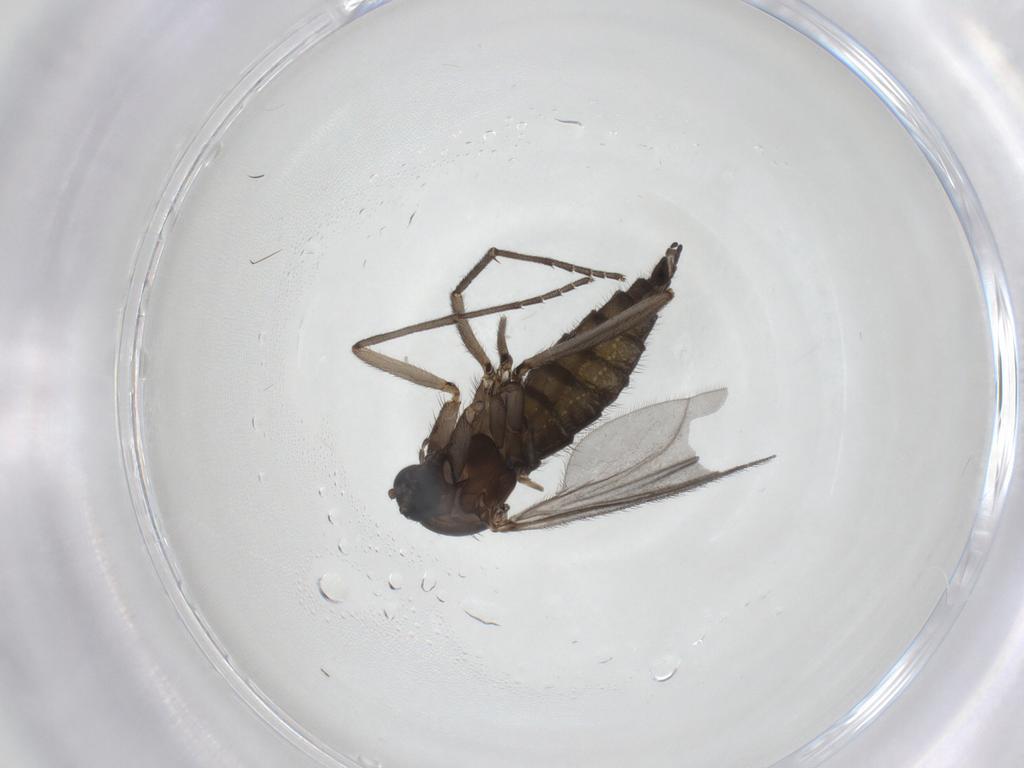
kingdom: Animalia
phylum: Arthropoda
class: Insecta
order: Diptera
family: Sciaridae
